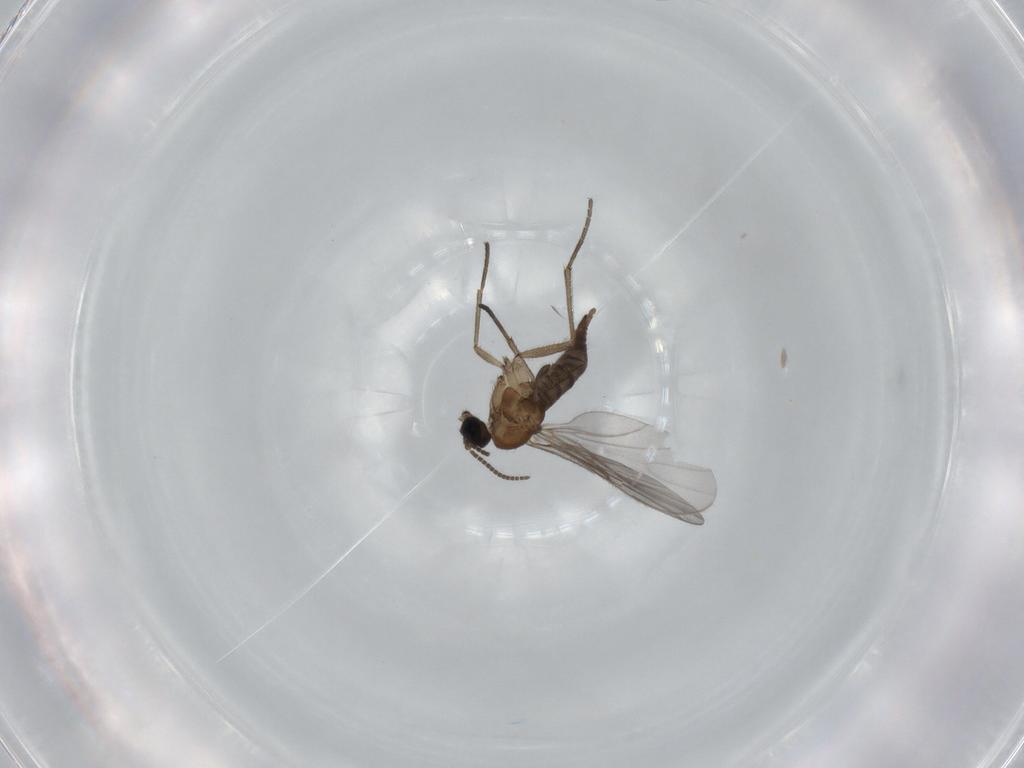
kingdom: Animalia
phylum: Arthropoda
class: Insecta
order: Diptera
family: Sciaridae
